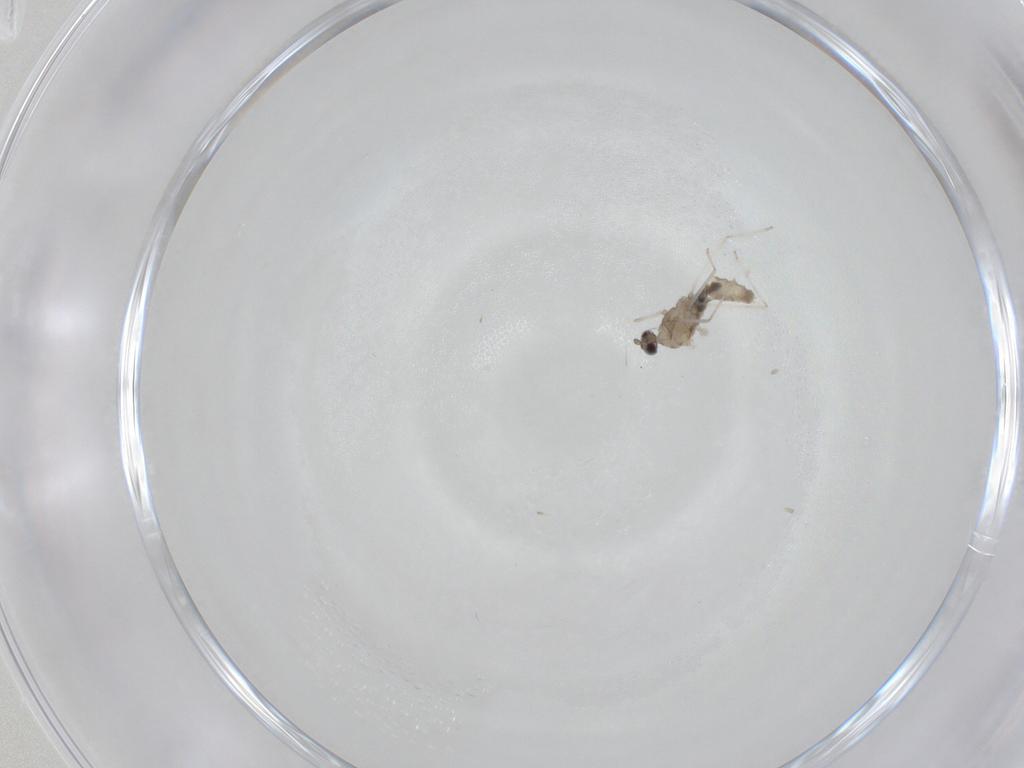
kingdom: Animalia
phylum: Arthropoda
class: Insecta
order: Diptera
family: Cecidomyiidae
